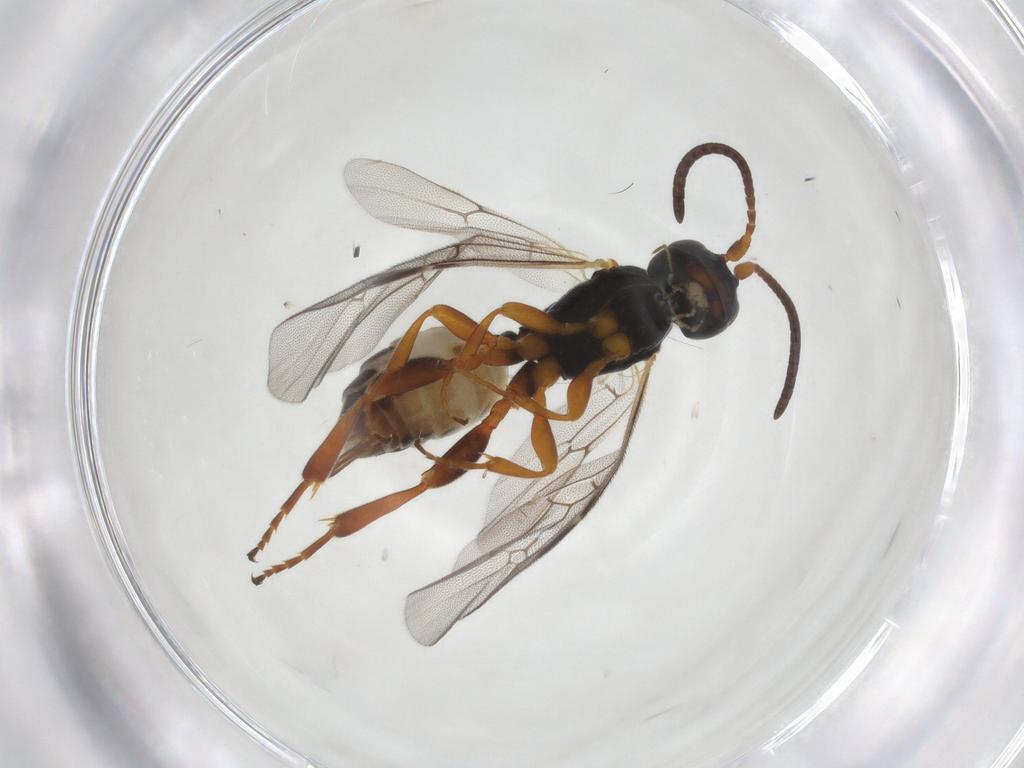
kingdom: Animalia
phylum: Arthropoda
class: Insecta
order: Hymenoptera
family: Ichneumonidae
